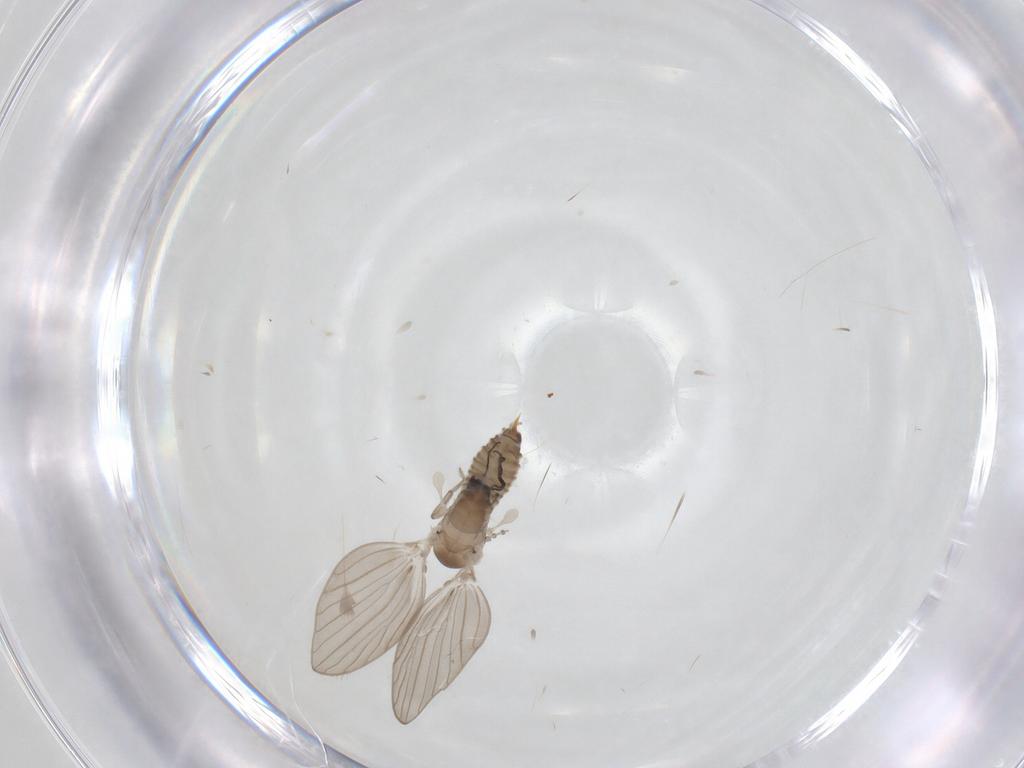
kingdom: Animalia
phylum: Arthropoda
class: Insecta
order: Diptera
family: Psychodidae
